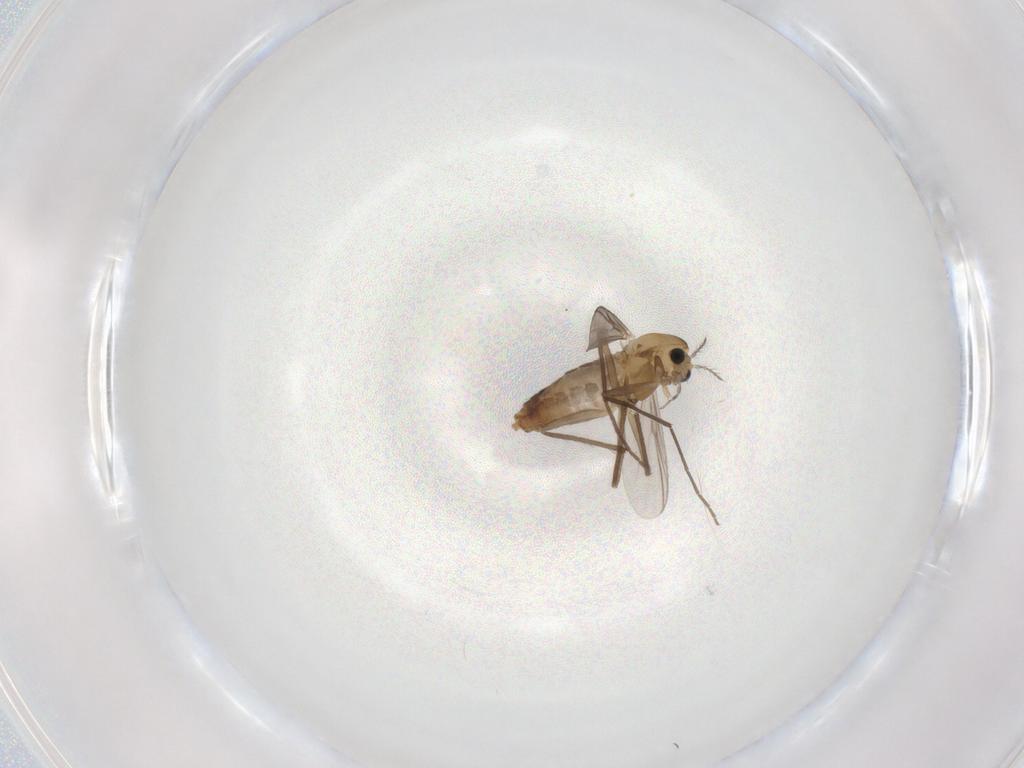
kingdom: Animalia
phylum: Arthropoda
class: Insecta
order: Diptera
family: Chironomidae
